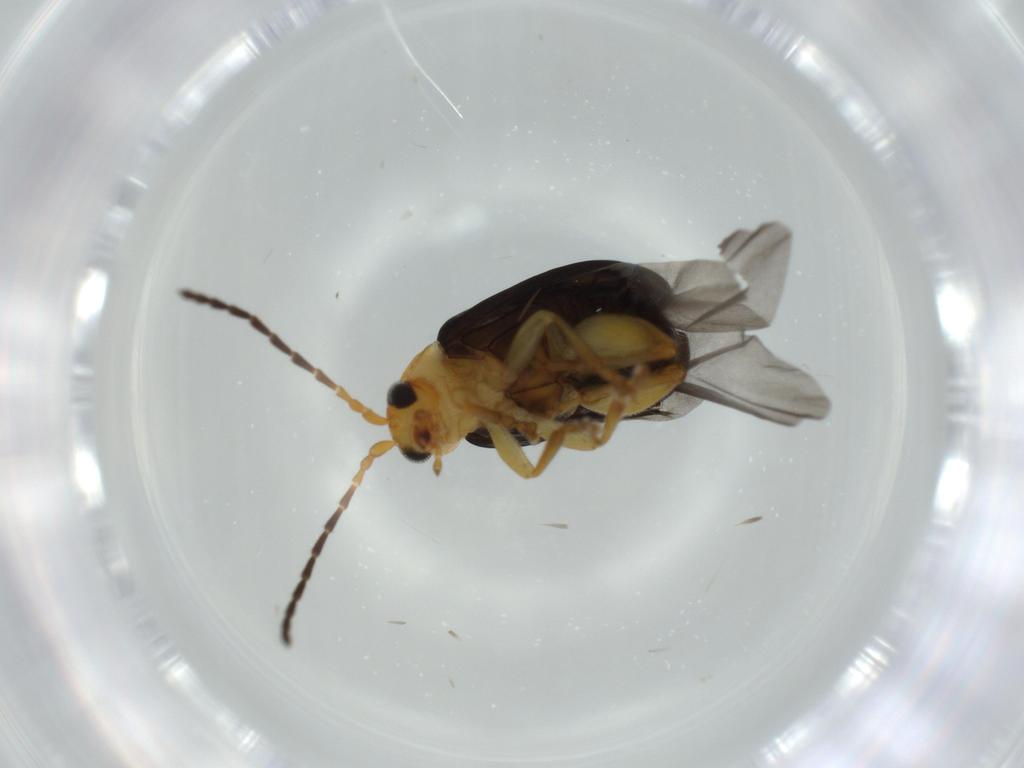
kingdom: Animalia
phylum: Arthropoda
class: Insecta
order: Coleoptera
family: Chrysomelidae
